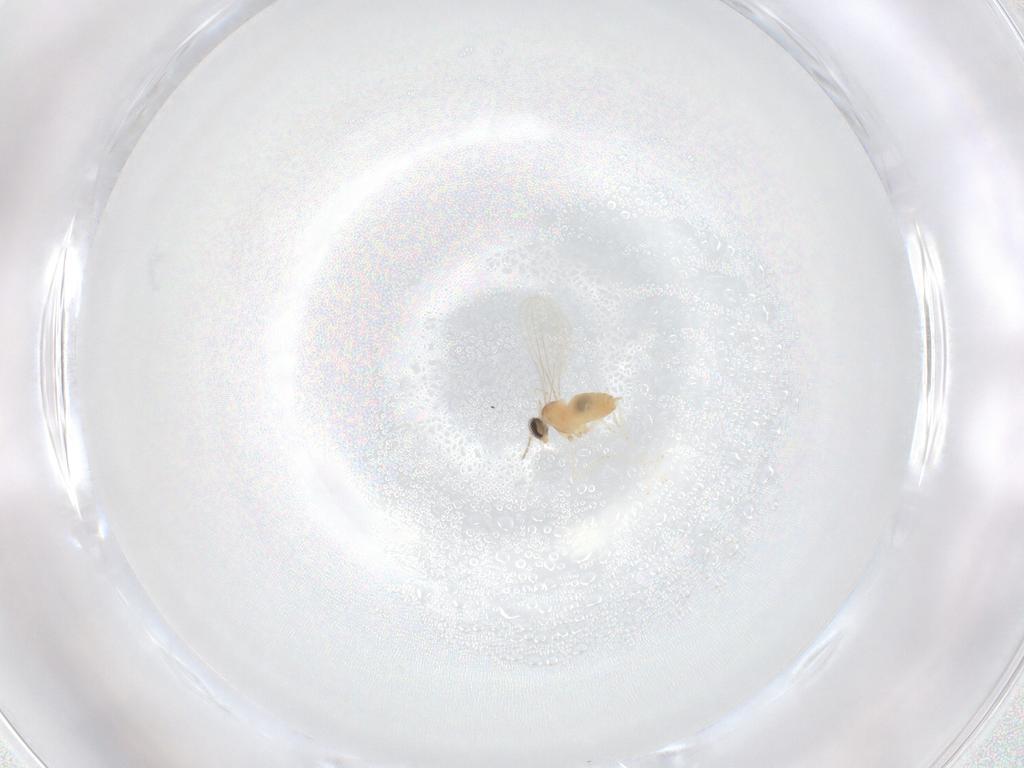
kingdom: Animalia
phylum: Arthropoda
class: Insecta
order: Diptera
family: Cecidomyiidae
